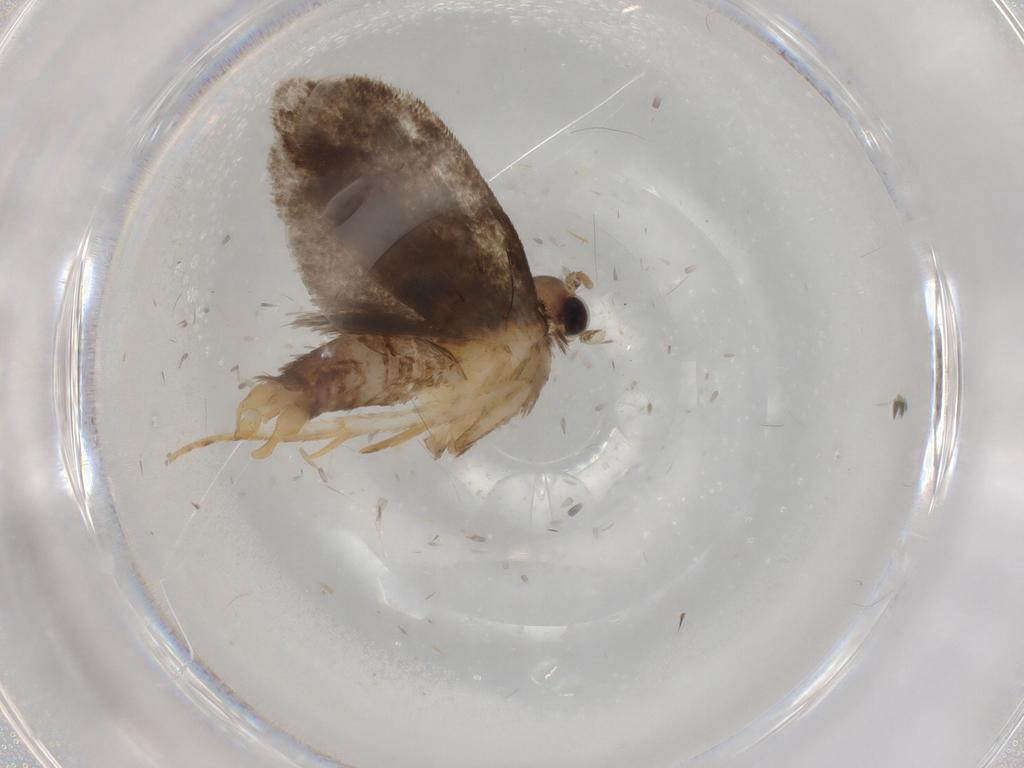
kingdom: Animalia
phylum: Arthropoda
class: Insecta
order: Lepidoptera
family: Tineidae
